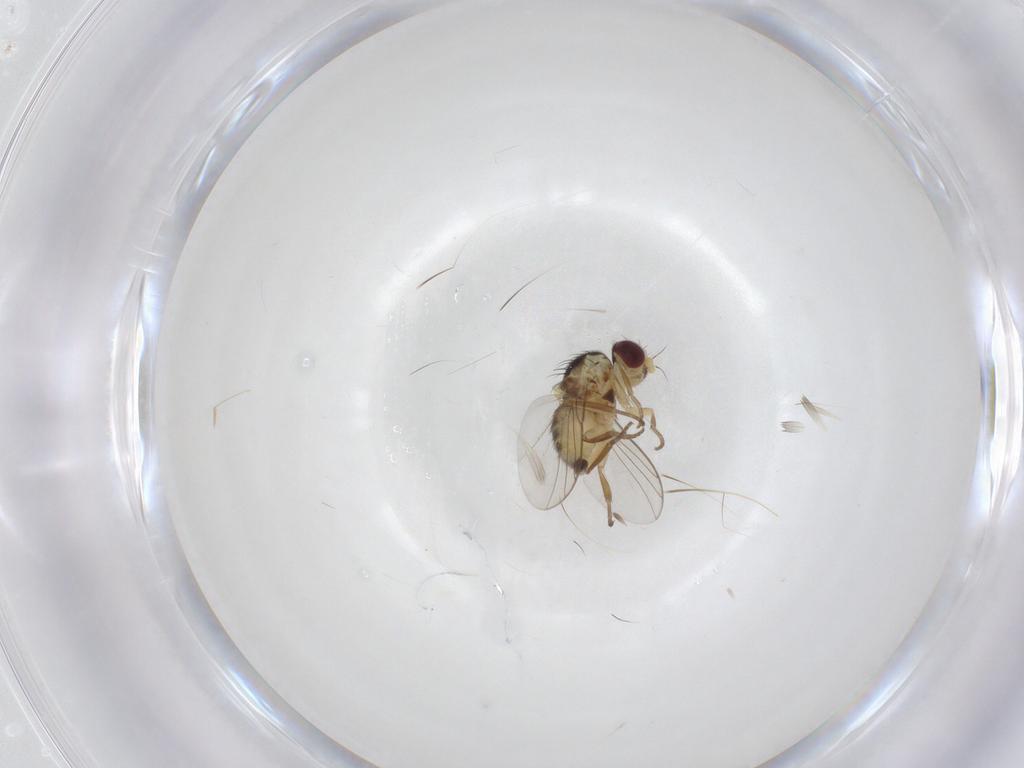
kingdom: Animalia
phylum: Arthropoda
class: Insecta
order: Diptera
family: Agromyzidae
